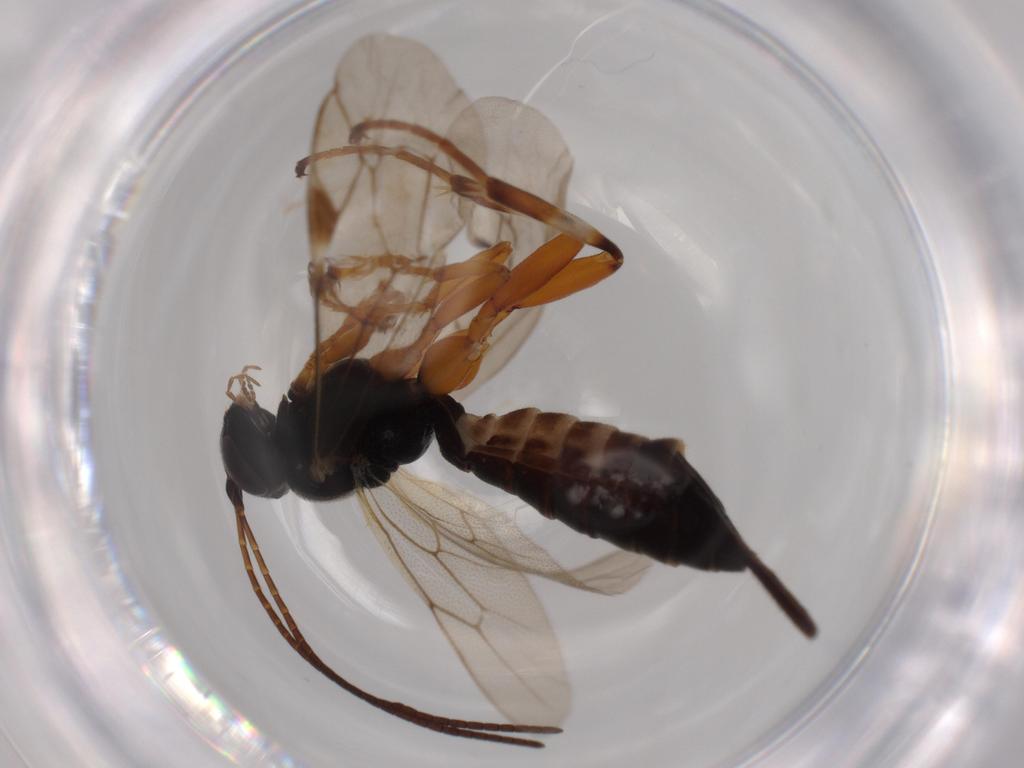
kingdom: Animalia
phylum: Arthropoda
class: Insecta
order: Hymenoptera
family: Ichneumonidae
